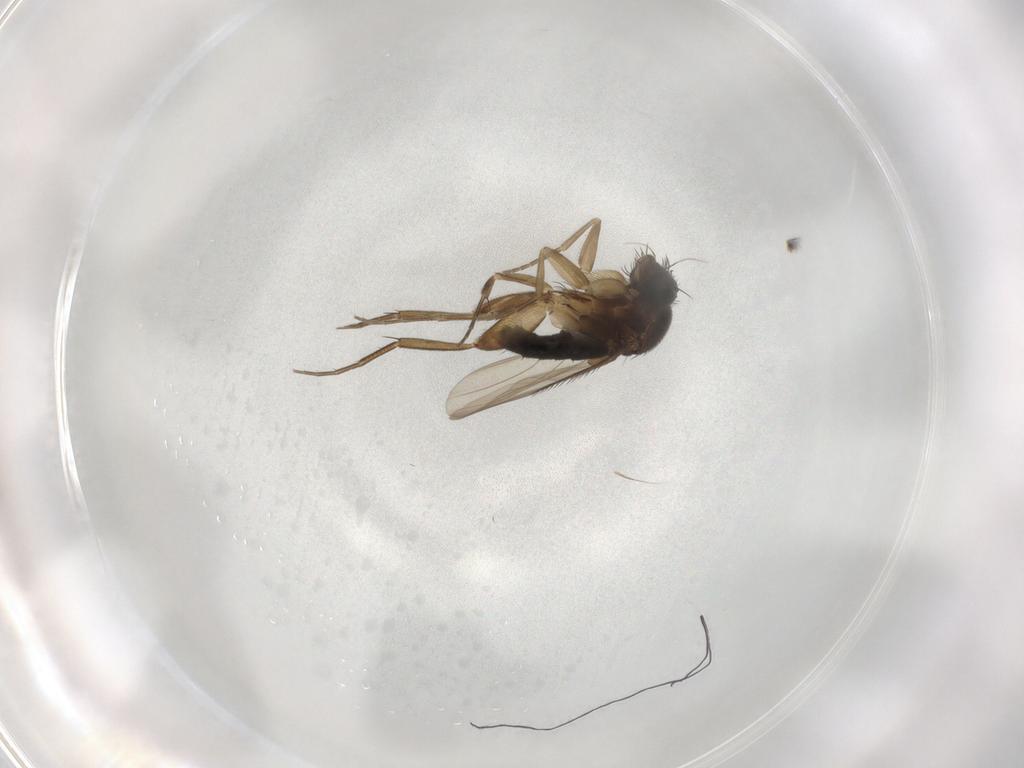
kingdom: Animalia
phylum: Arthropoda
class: Insecta
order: Diptera
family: Phoridae
